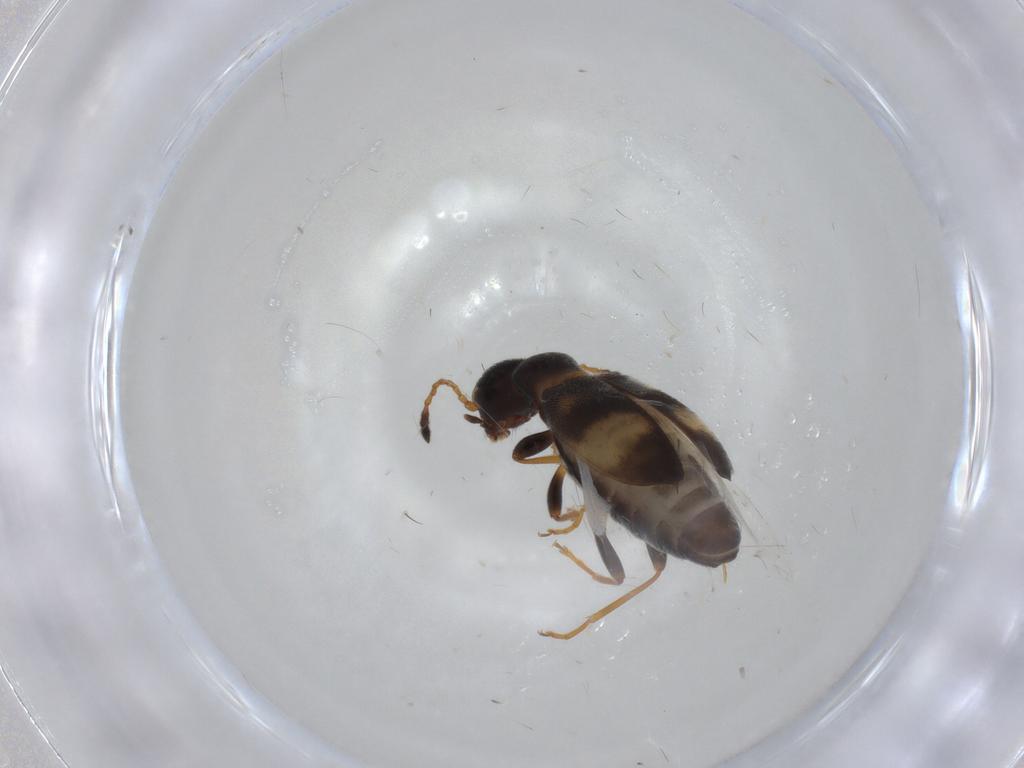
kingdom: Animalia
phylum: Arthropoda
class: Insecta
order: Coleoptera
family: Anthicidae
